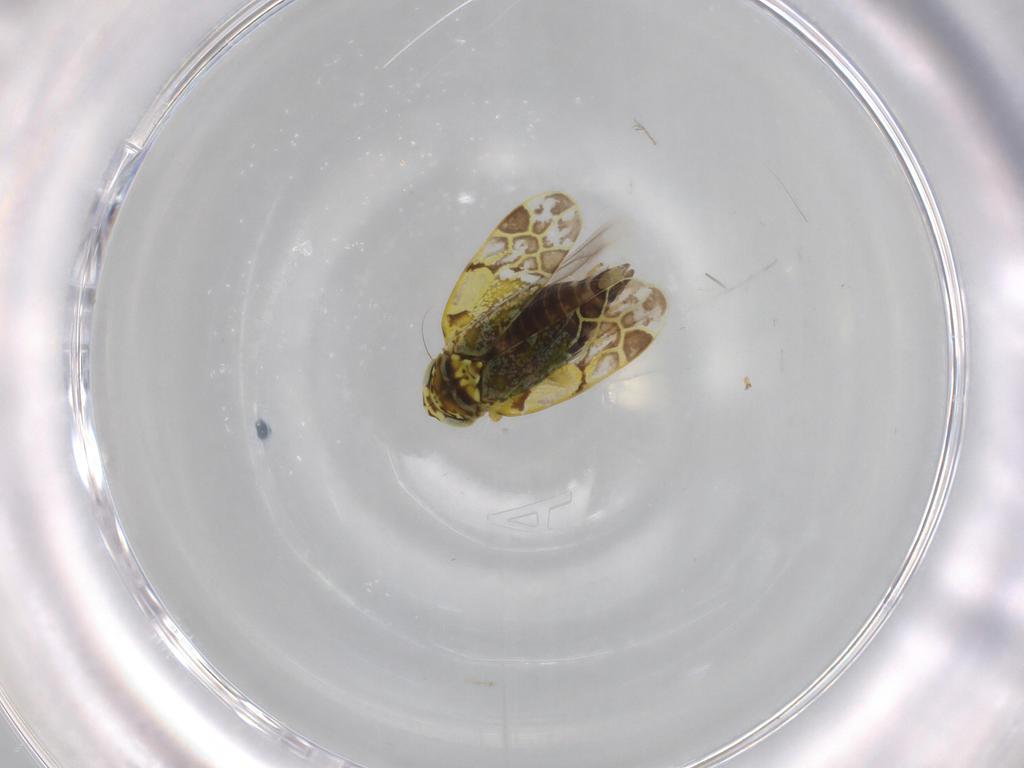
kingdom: Animalia
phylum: Arthropoda
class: Insecta
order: Hemiptera
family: Cicadellidae
